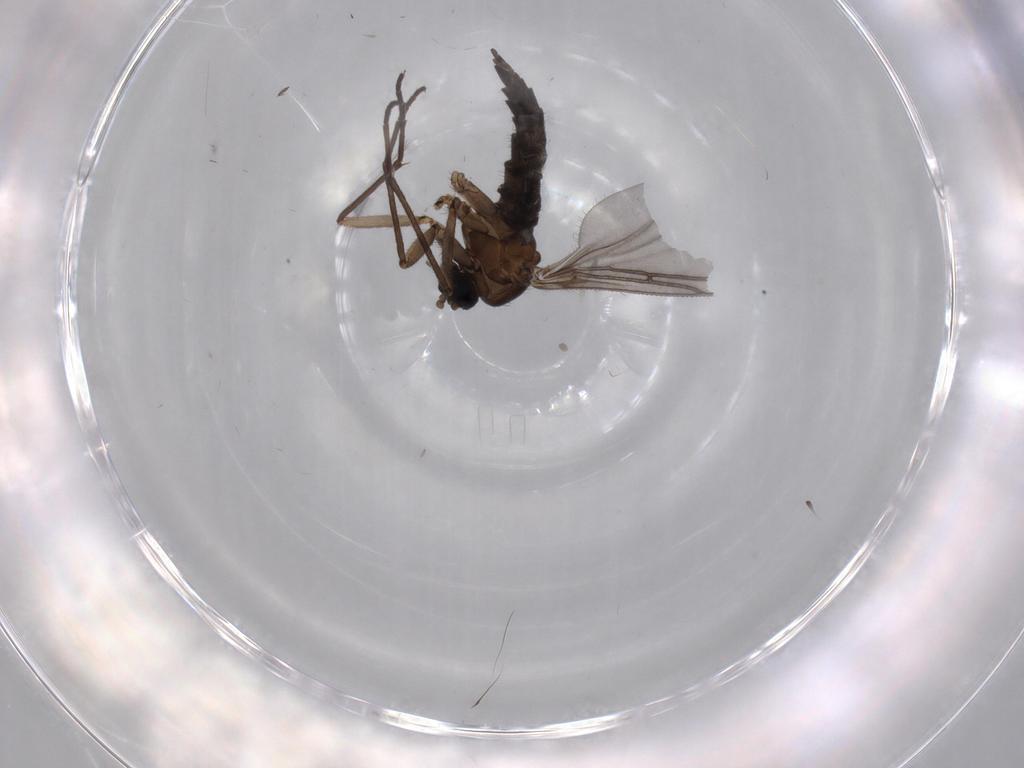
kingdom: Animalia
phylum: Arthropoda
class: Insecta
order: Diptera
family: Sciaridae
